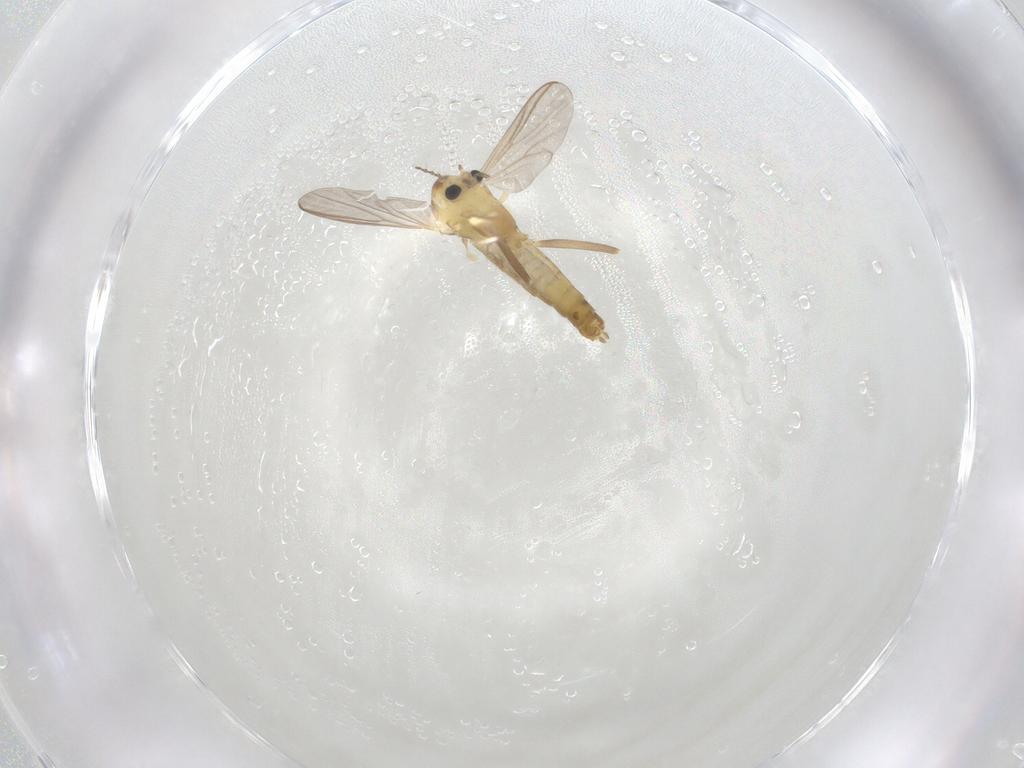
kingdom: Animalia
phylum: Arthropoda
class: Insecta
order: Diptera
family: Chironomidae
